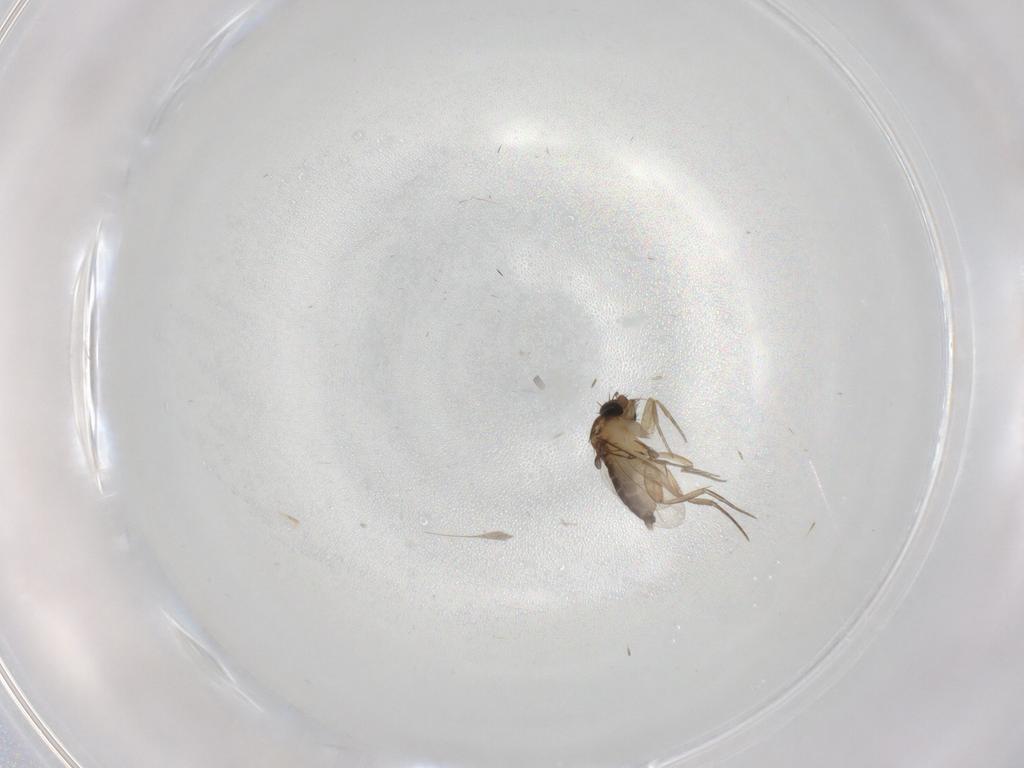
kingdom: Animalia
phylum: Arthropoda
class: Insecta
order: Diptera
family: Phoridae
